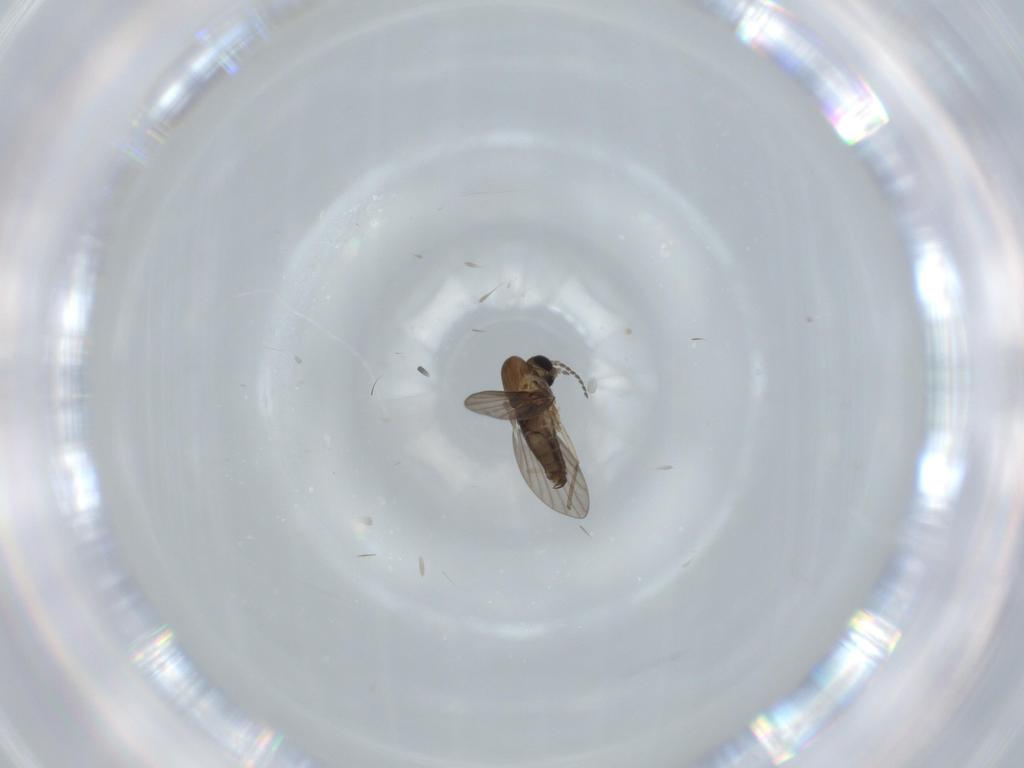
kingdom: Animalia
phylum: Arthropoda
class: Insecta
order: Diptera
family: Psychodidae
